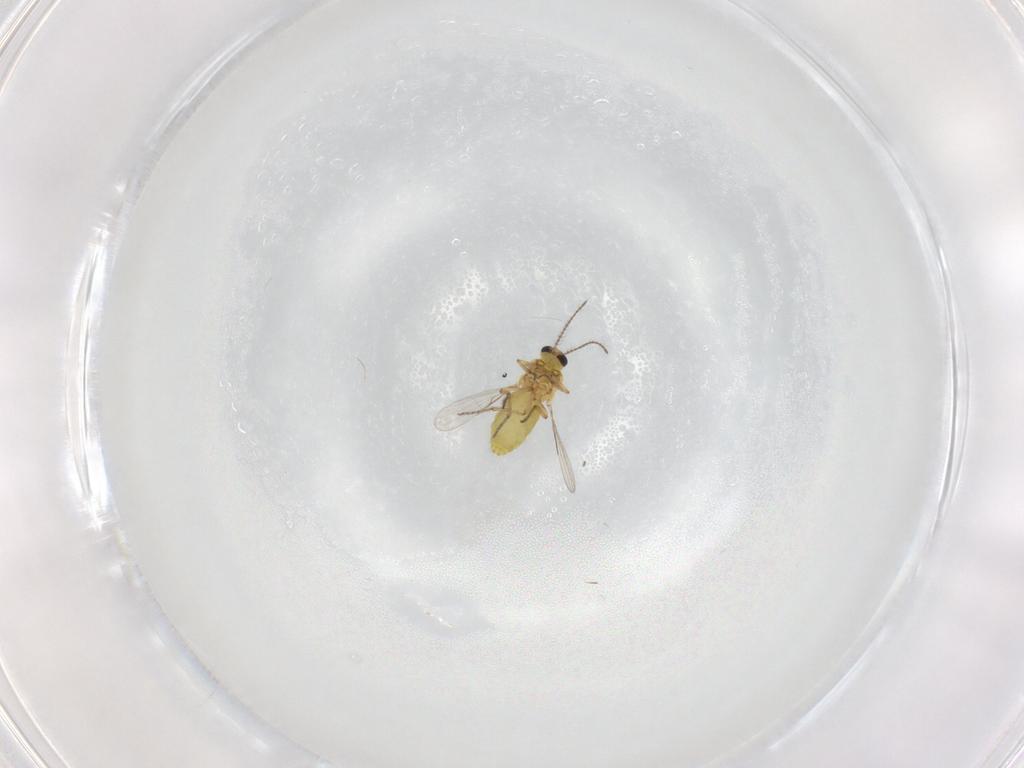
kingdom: Animalia
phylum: Arthropoda
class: Insecta
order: Diptera
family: Ceratopogonidae
